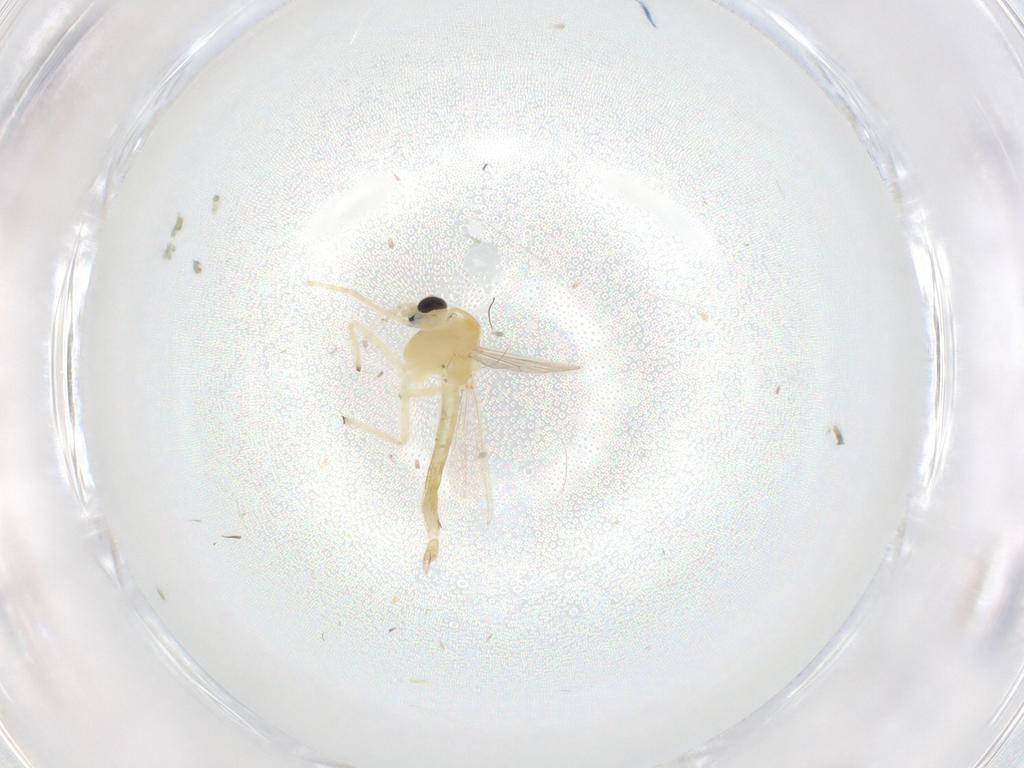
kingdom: Animalia
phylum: Arthropoda
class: Insecta
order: Diptera
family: Chironomidae
